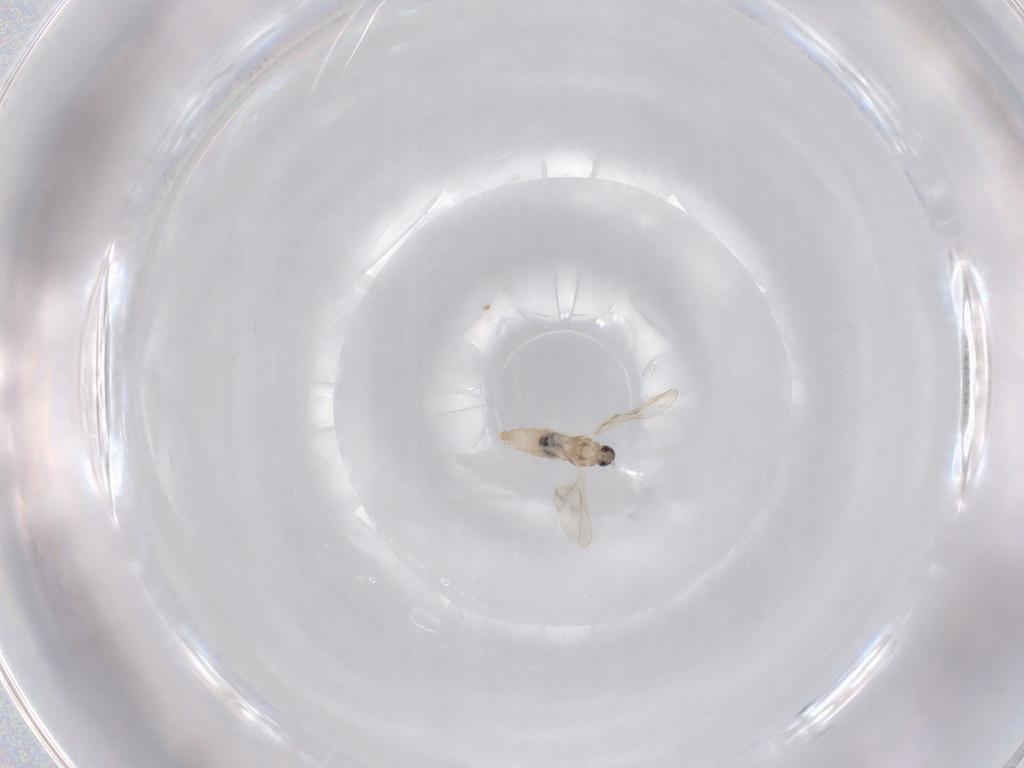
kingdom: Animalia
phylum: Arthropoda
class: Insecta
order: Diptera
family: Cecidomyiidae
